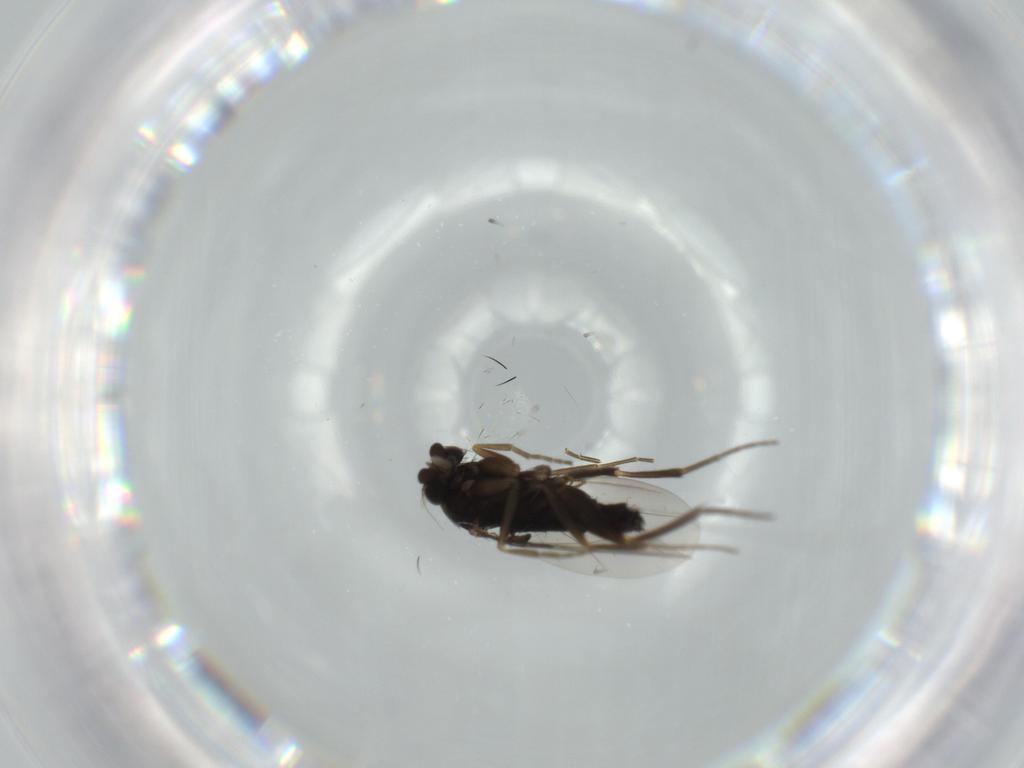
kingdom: Animalia
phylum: Arthropoda
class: Insecta
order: Diptera
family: Phoridae
